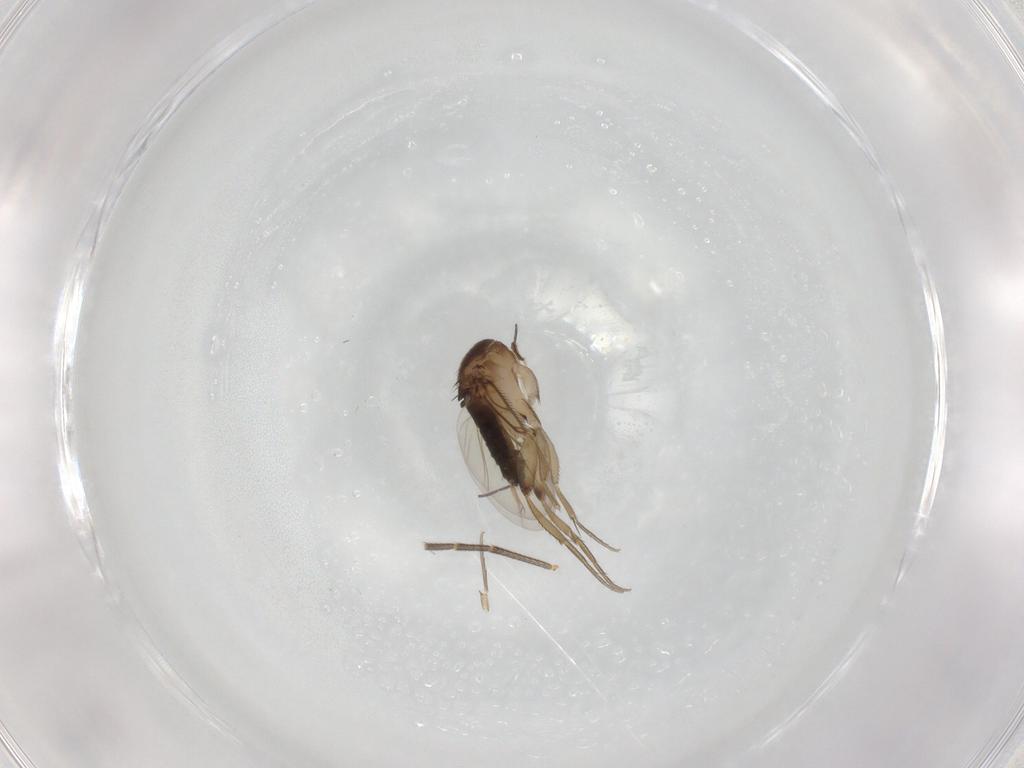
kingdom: Animalia
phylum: Arthropoda
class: Insecta
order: Diptera
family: Phoridae
